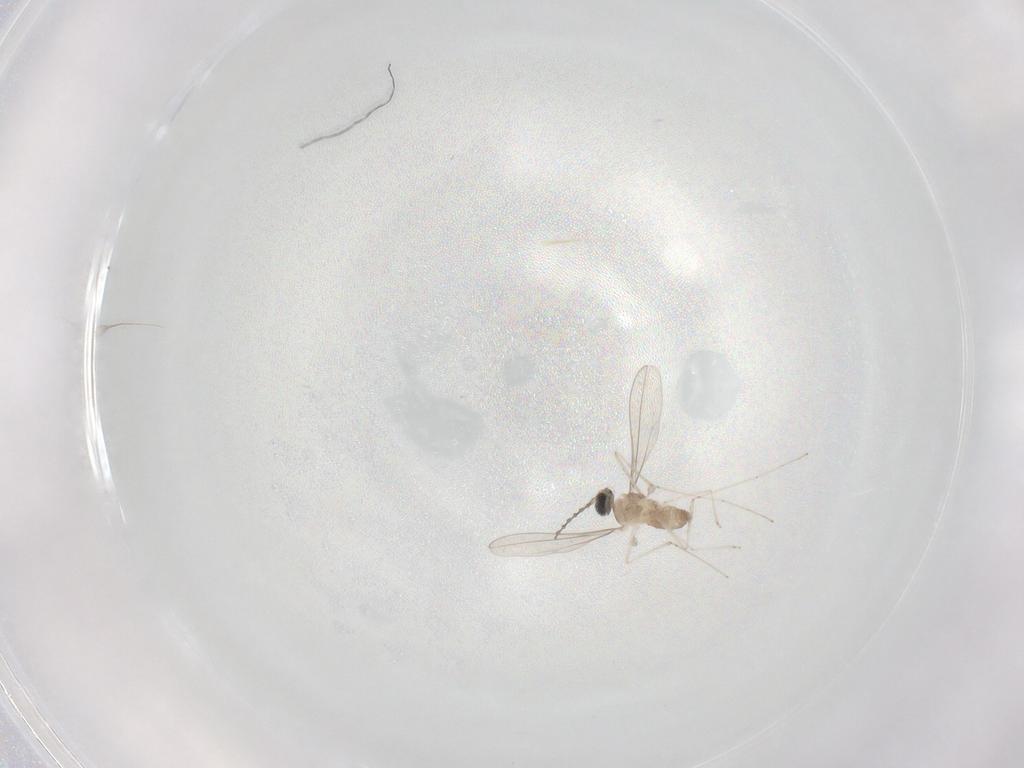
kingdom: Animalia
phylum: Arthropoda
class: Insecta
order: Diptera
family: Cecidomyiidae
